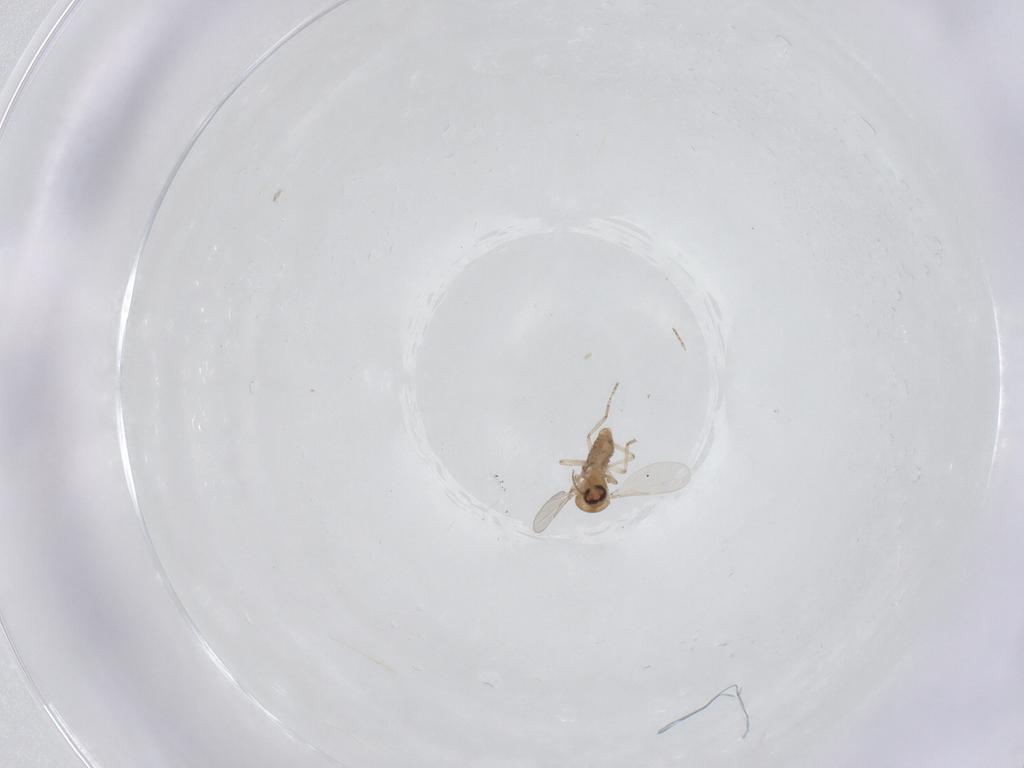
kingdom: Animalia
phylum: Arthropoda
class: Insecta
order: Diptera
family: Ceratopogonidae
